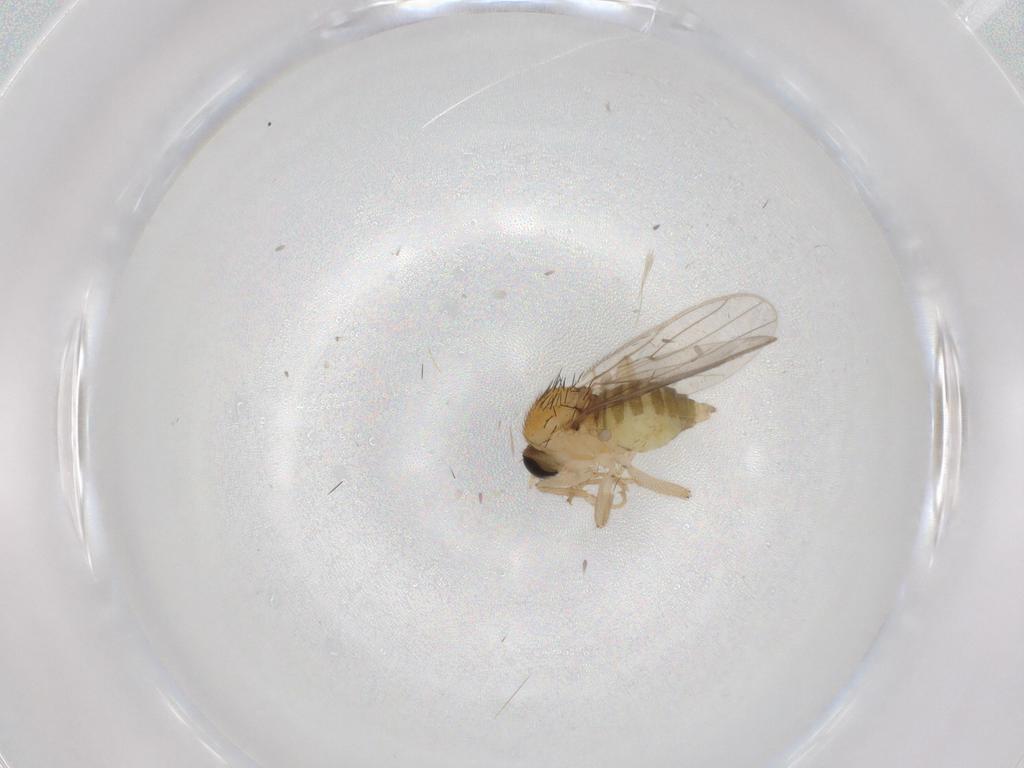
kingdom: Animalia
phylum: Arthropoda
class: Insecta
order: Diptera
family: Hybotidae
